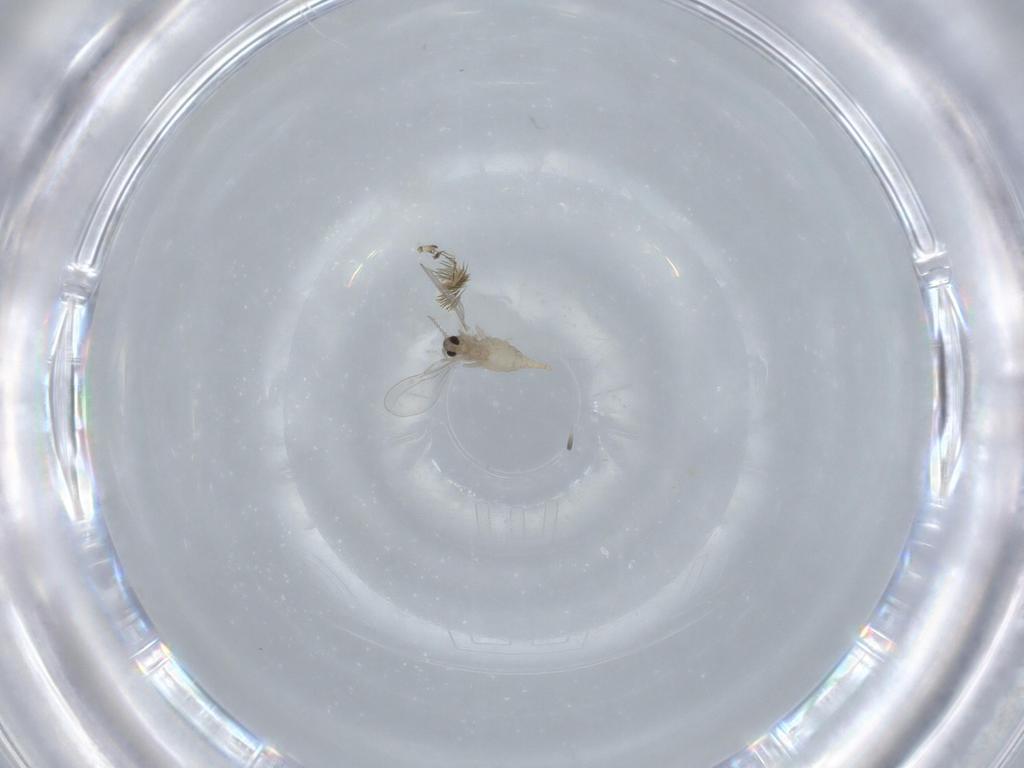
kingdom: Animalia
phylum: Arthropoda
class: Insecta
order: Diptera
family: Cecidomyiidae
